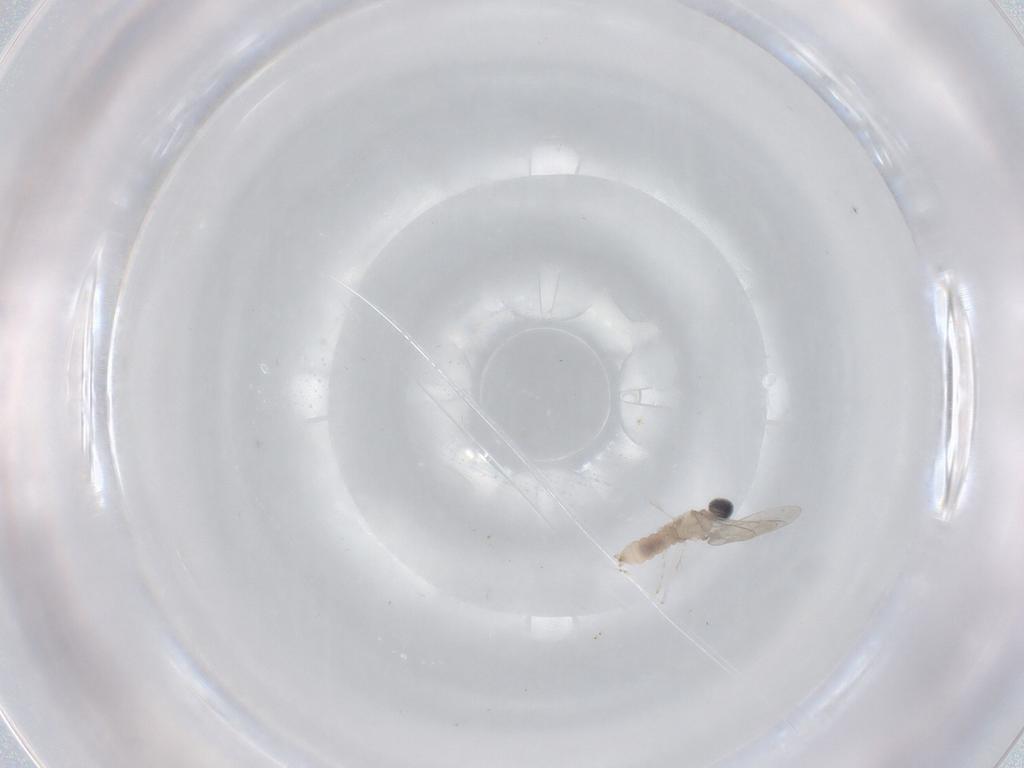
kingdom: Animalia
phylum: Arthropoda
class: Insecta
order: Diptera
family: Cecidomyiidae
